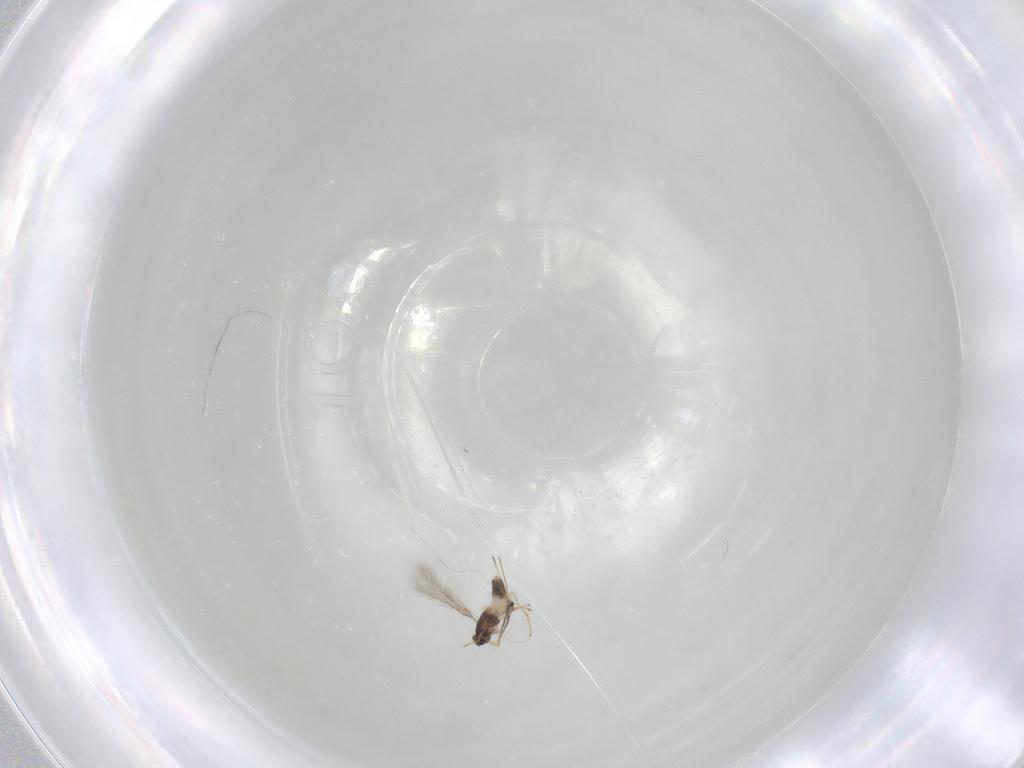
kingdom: Animalia
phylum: Arthropoda
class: Insecta
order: Hymenoptera
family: Mymaridae
